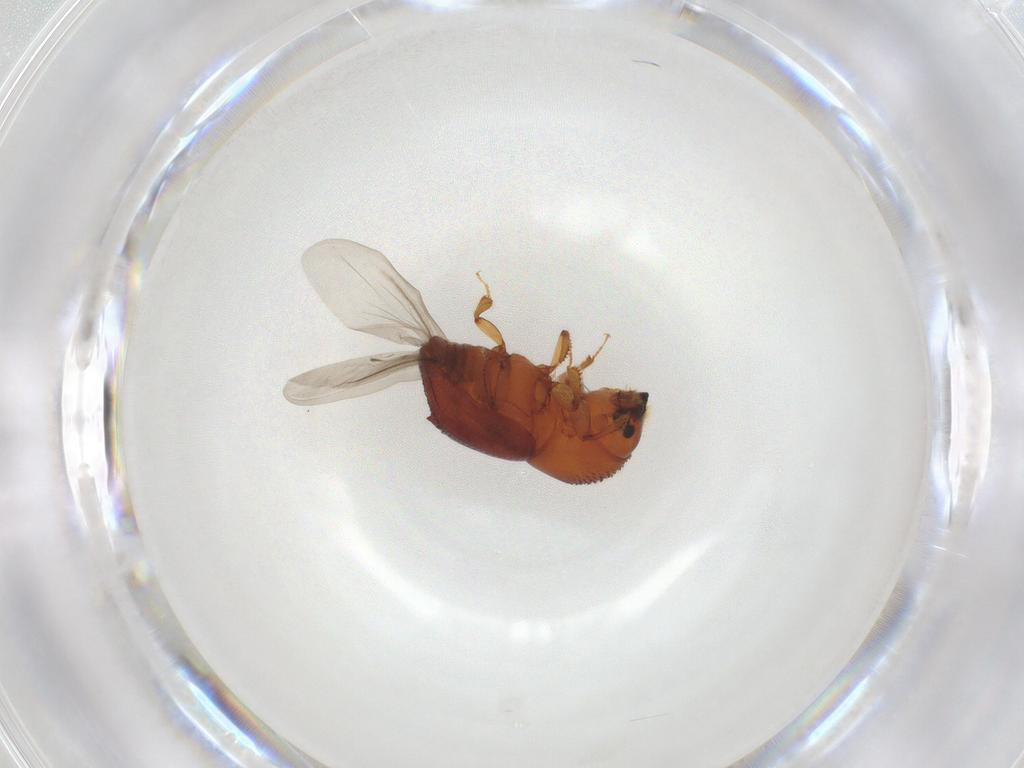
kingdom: Animalia
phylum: Arthropoda
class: Insecta
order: Coleoptera
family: Curculionidae
